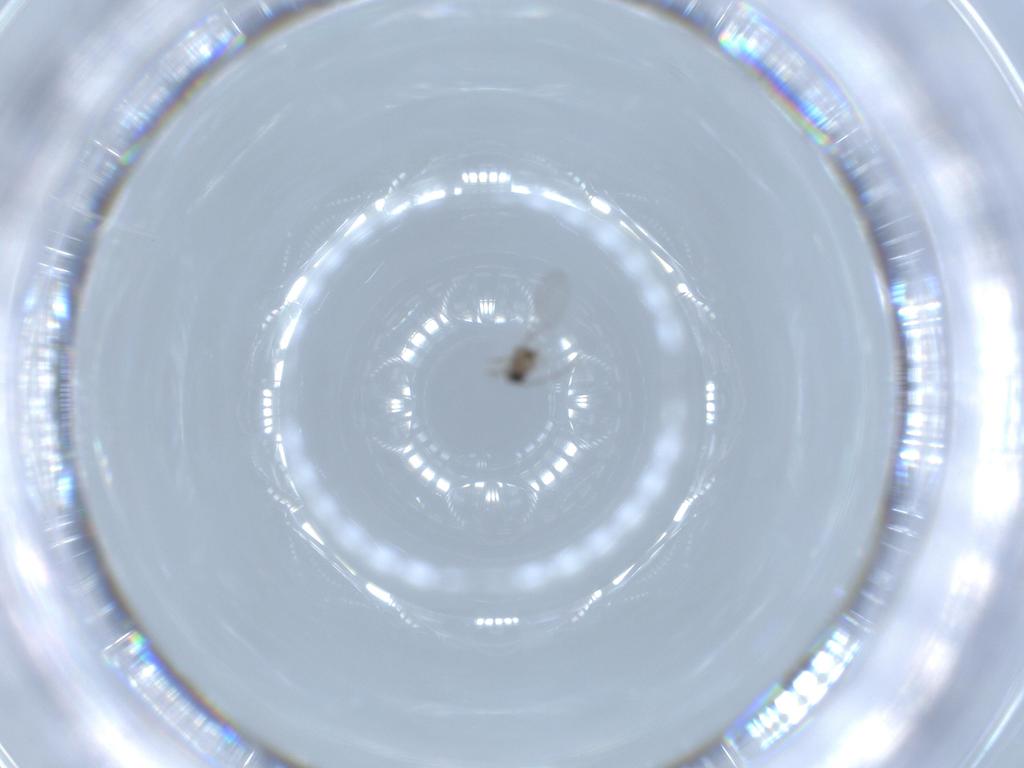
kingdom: Animalia
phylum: Arthropoda
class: Insecta
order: Diptera
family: Cecidomyiidae
